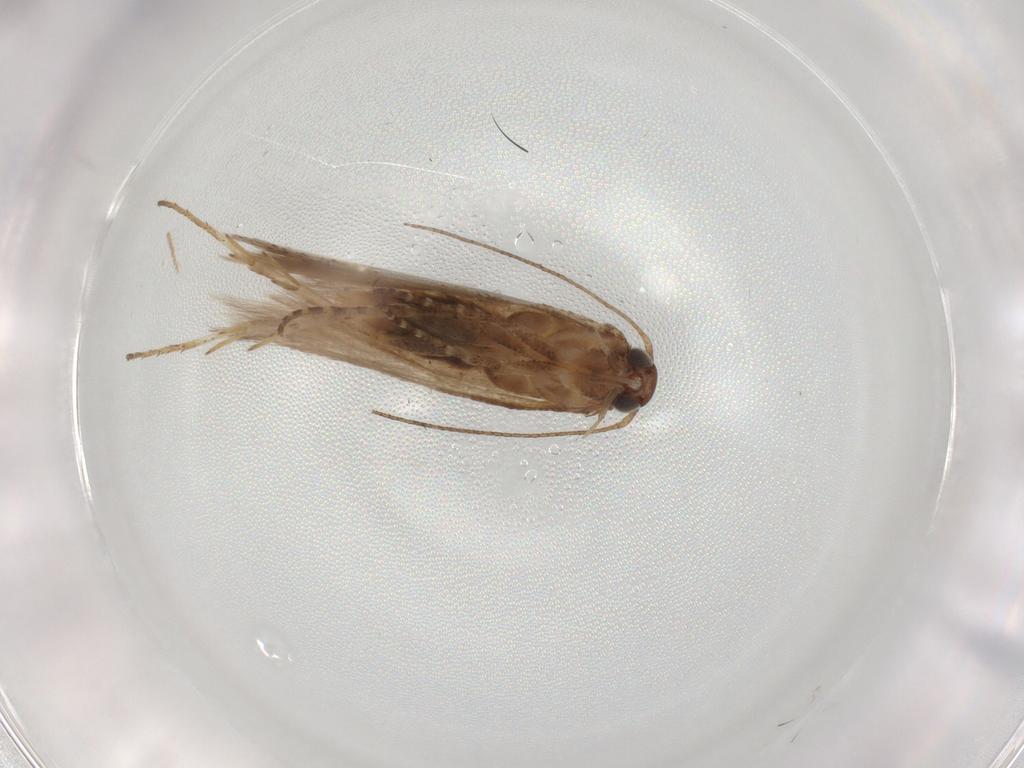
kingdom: Animalia
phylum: Arthropoda
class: Insecta
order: Lepidoptera
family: Gelechiidae
